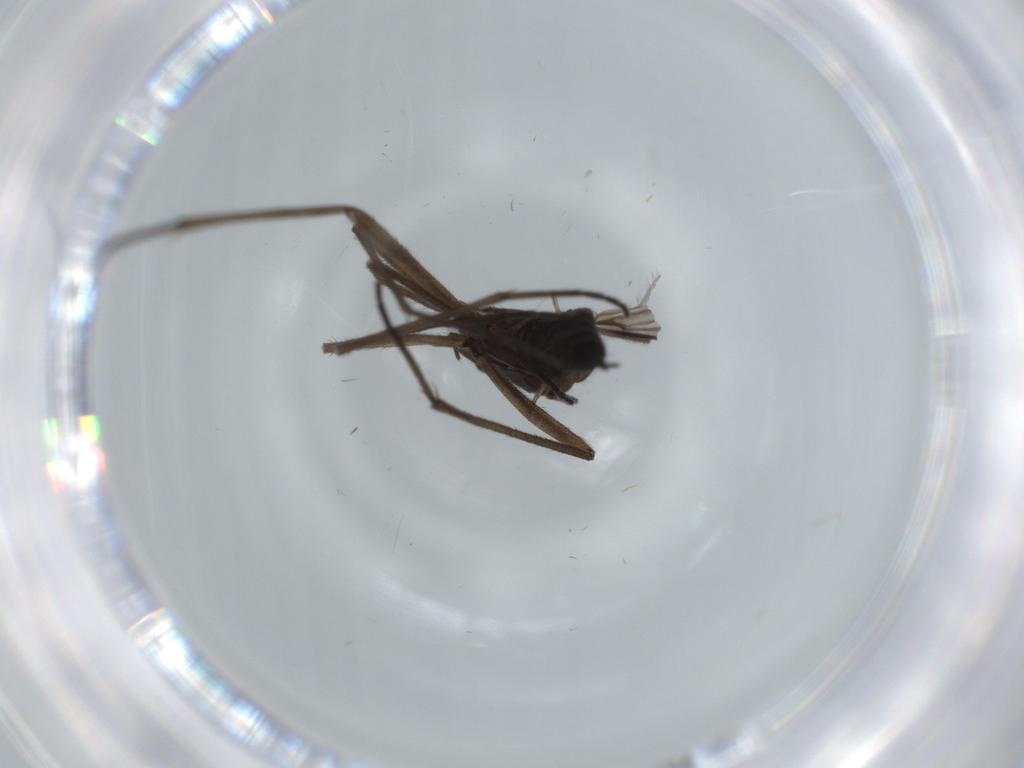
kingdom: Animalia
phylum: Arthropoda
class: Insecta
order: Diptera
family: Sciaridae
